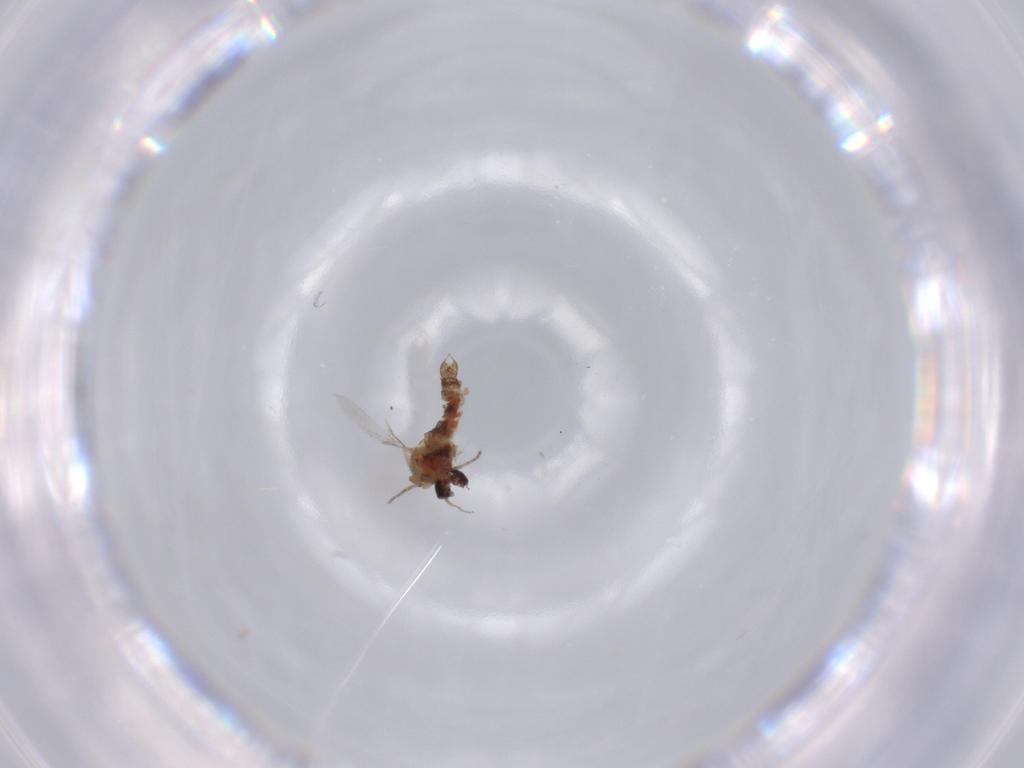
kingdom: Animalia
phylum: Arthropoda
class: Insecta
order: Diptera
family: Ceratopogonidae
